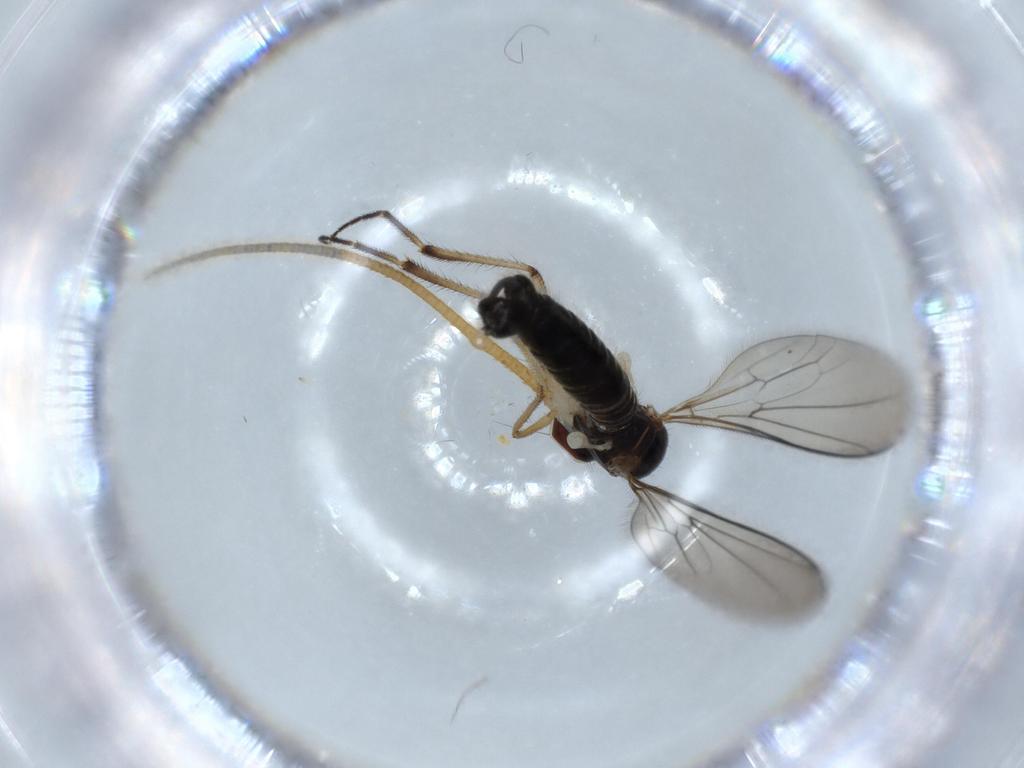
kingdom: Animalia
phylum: Arthropoda
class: Insecta
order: Diptera
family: Hybotidae
